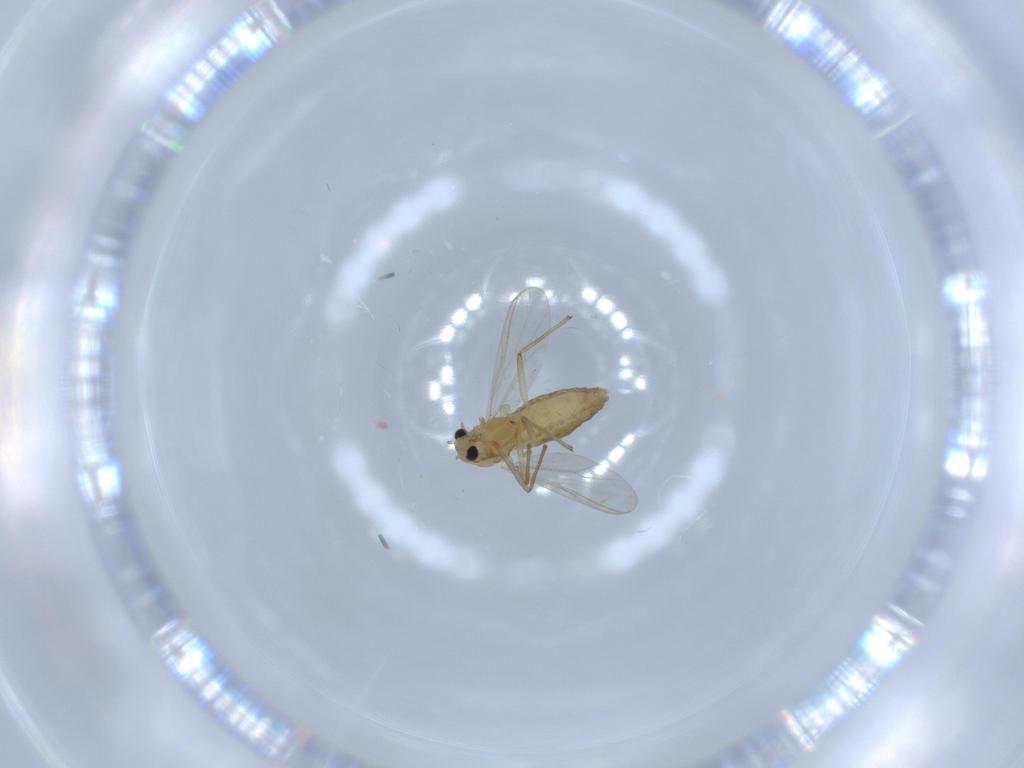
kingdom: Animalia
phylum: Arthropoda
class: Insecta
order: Diptera
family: Chironomidae
